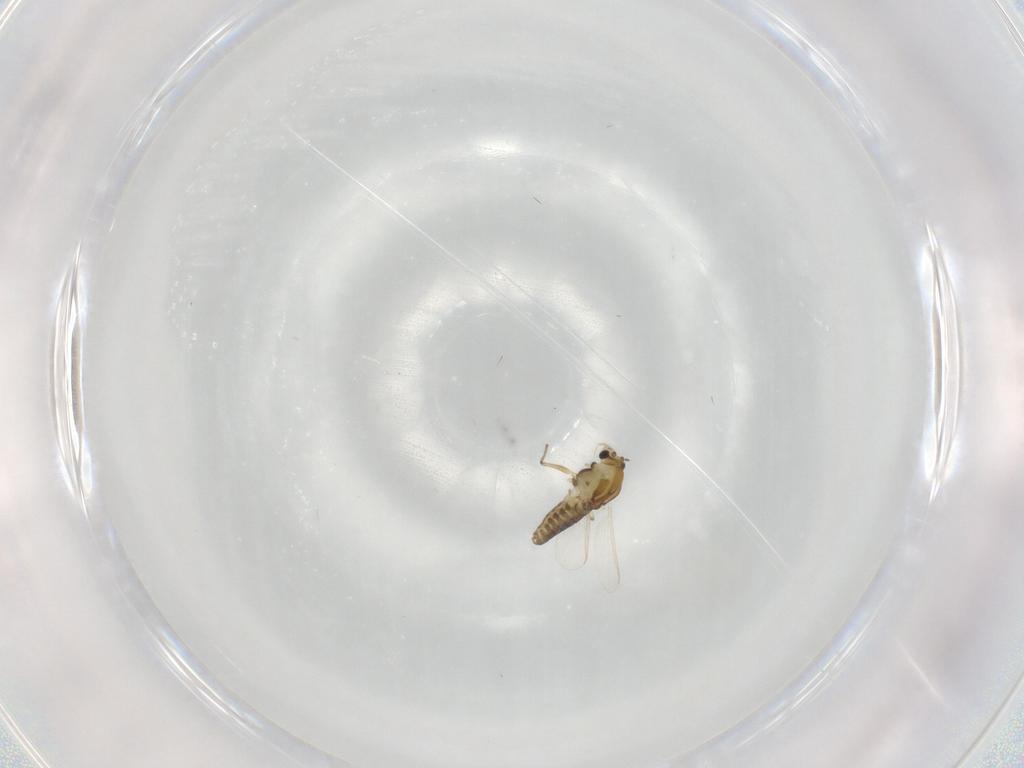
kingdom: Animalia
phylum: Arthropoda
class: Insecta
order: Diptera
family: Chironomidae
